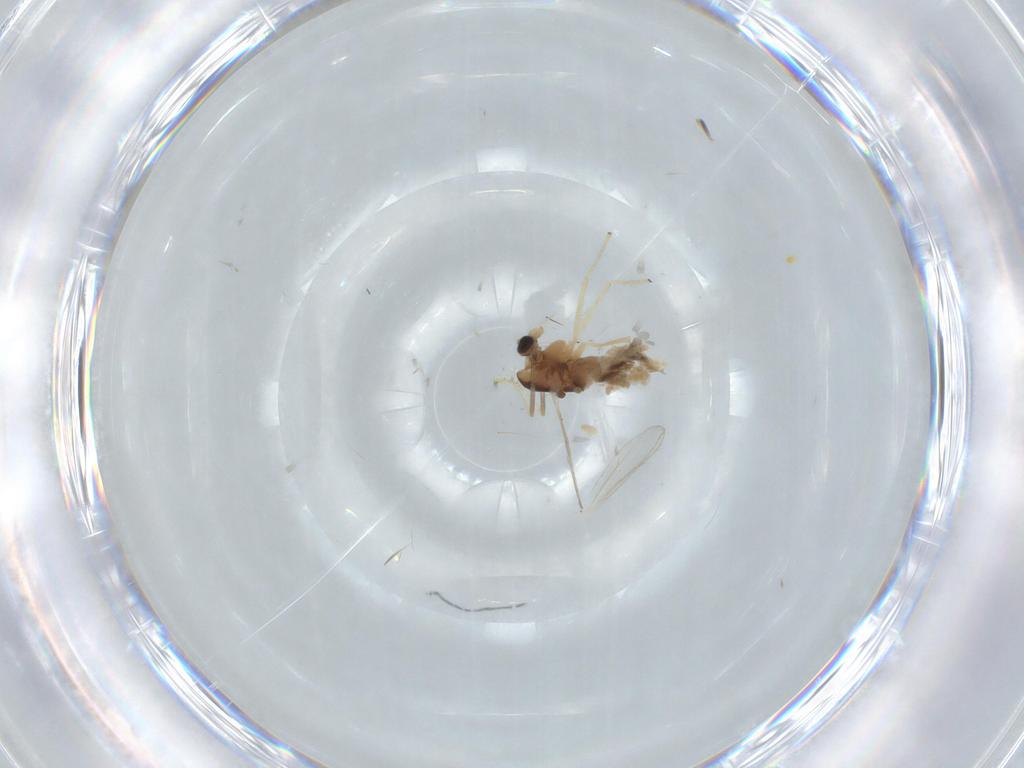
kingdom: Animalia
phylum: Arthropoda
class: Insecta
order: Diptera
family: Chironomidae
